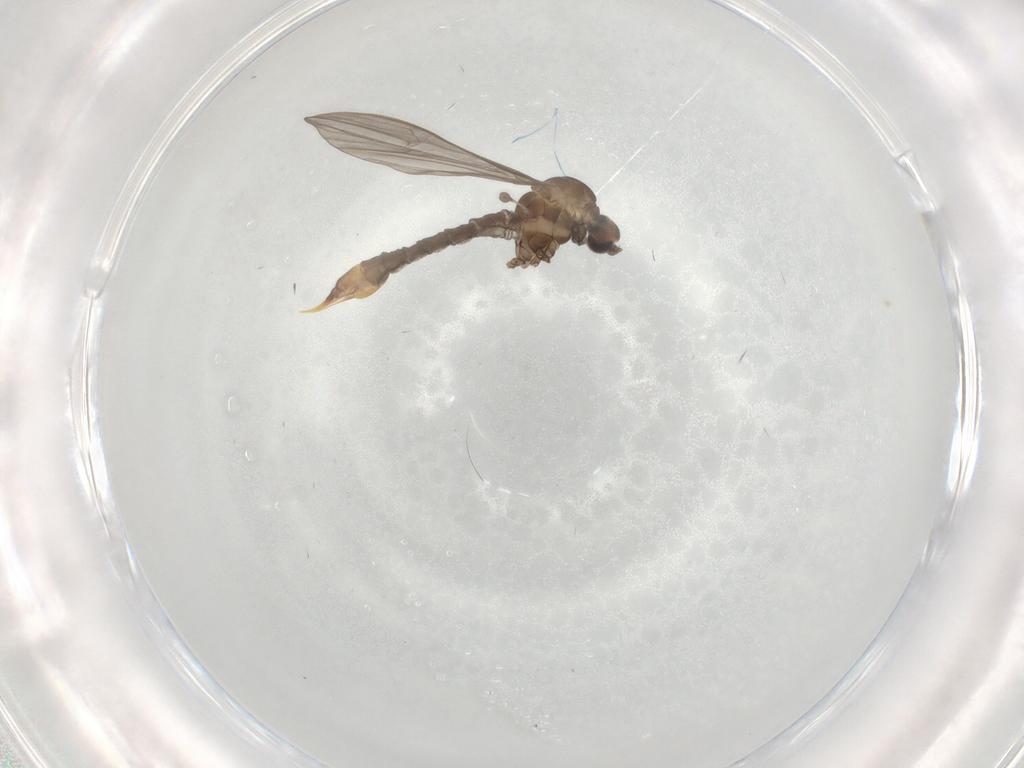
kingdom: Animalia
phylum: Arthropoda
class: Insecta
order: Diptera
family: Limoniidae
